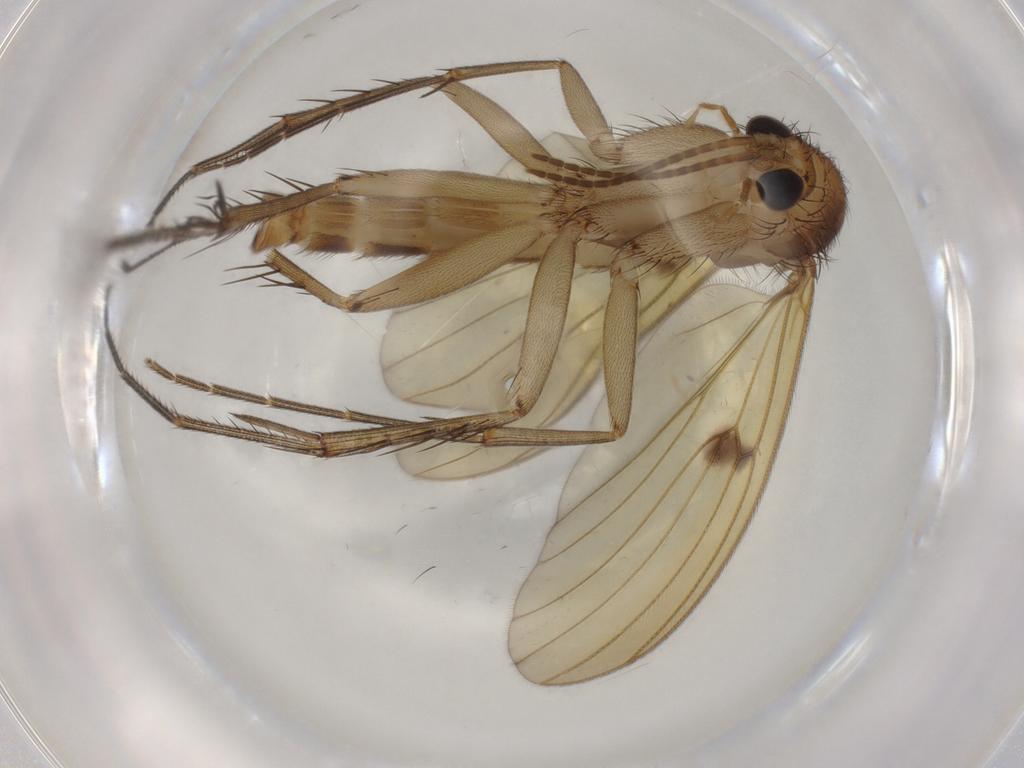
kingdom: Animalia
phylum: Arthropoda
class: Insecta
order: Diptera
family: Sciaridae
